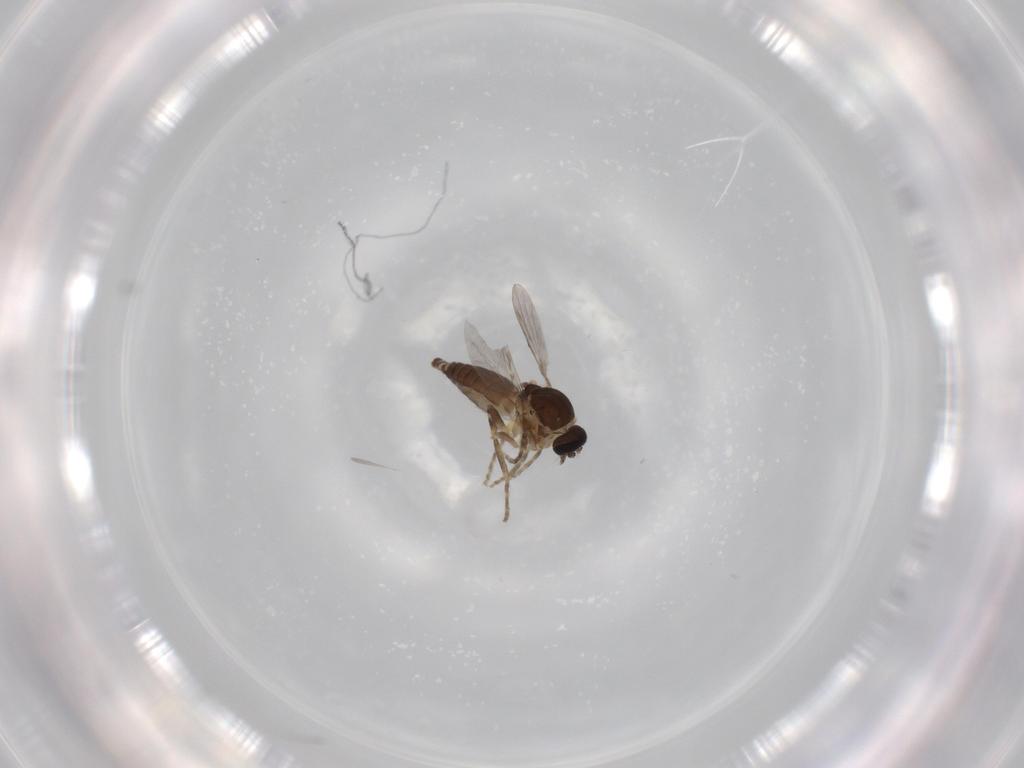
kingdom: Animalia
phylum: Arthropoda
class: Insecta
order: Diptera
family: Ceratopogonidae
